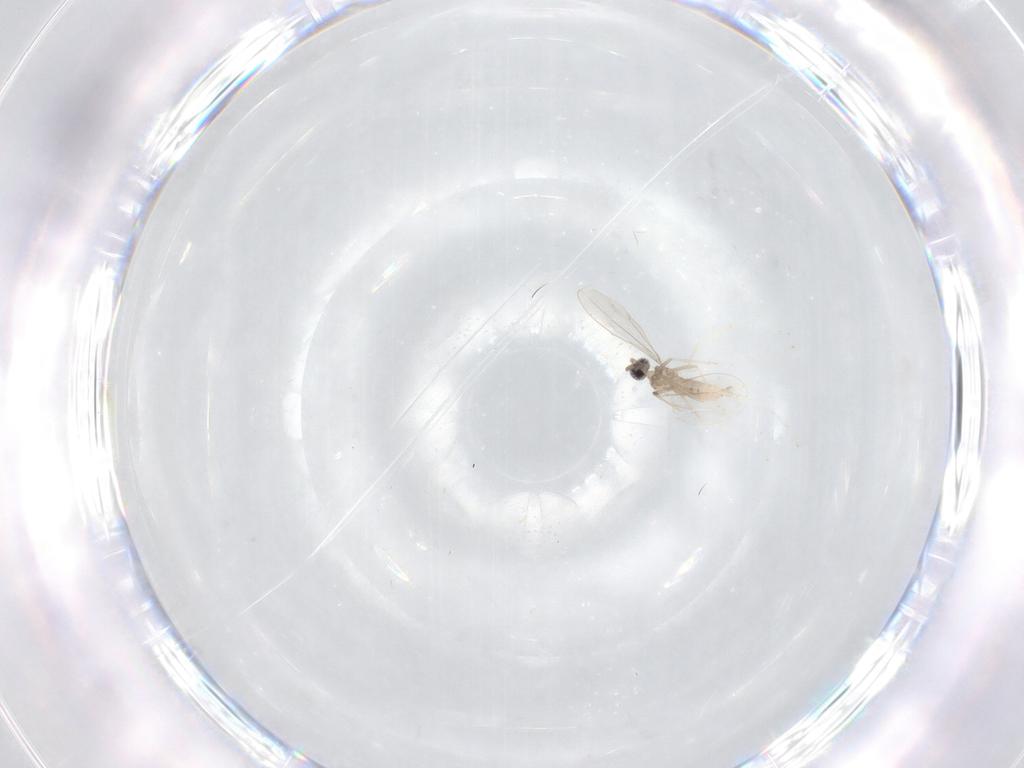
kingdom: Animalia
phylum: Arthropoda
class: Insecta
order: Diptera
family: Cecidomyiidae
